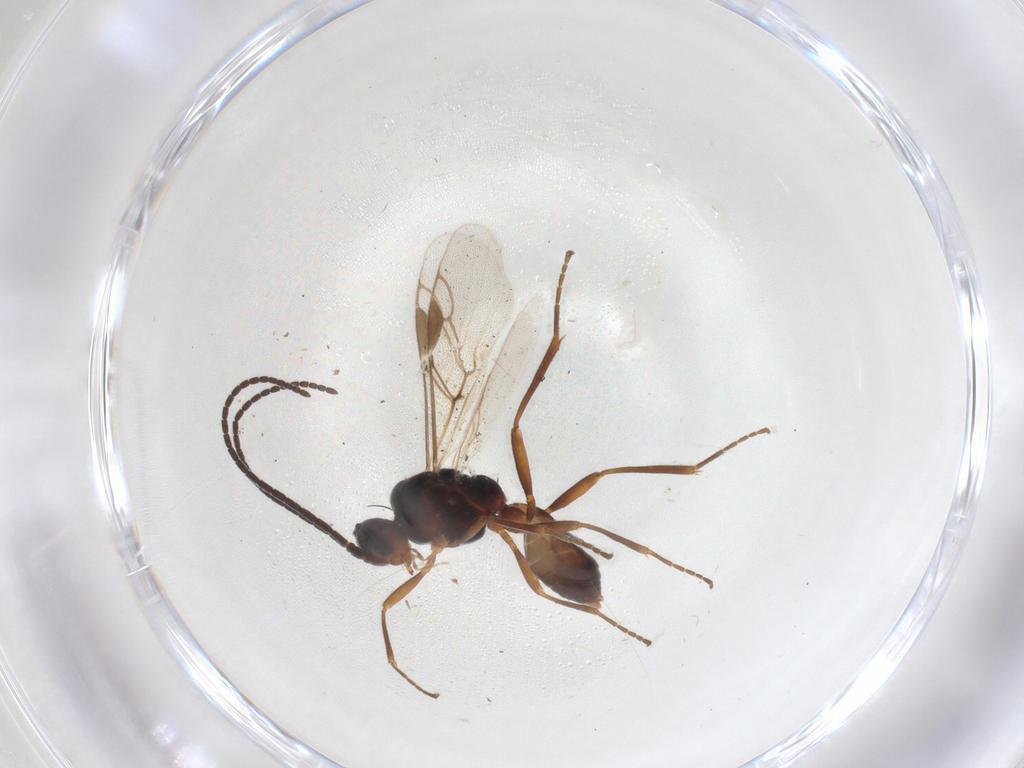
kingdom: Animalia
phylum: Arthropoda
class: Insecta
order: Hymenoptera
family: Braconidae
